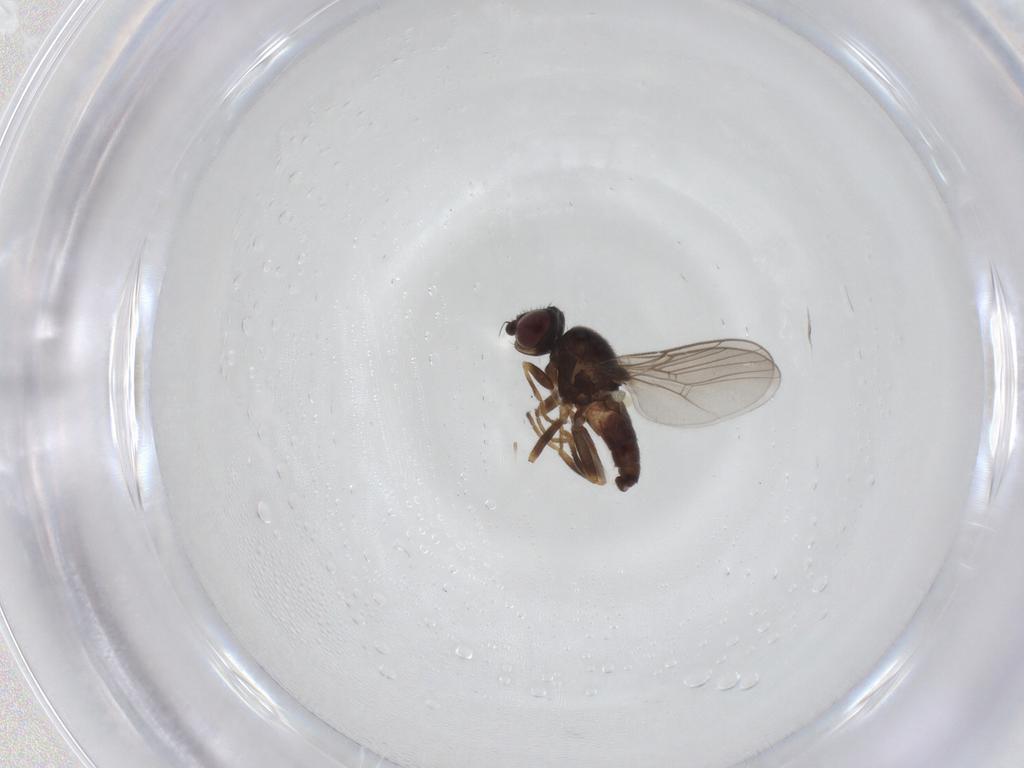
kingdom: Animalia
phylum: Arthropoda
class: Insecta
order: Diptera
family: Chloropidae
